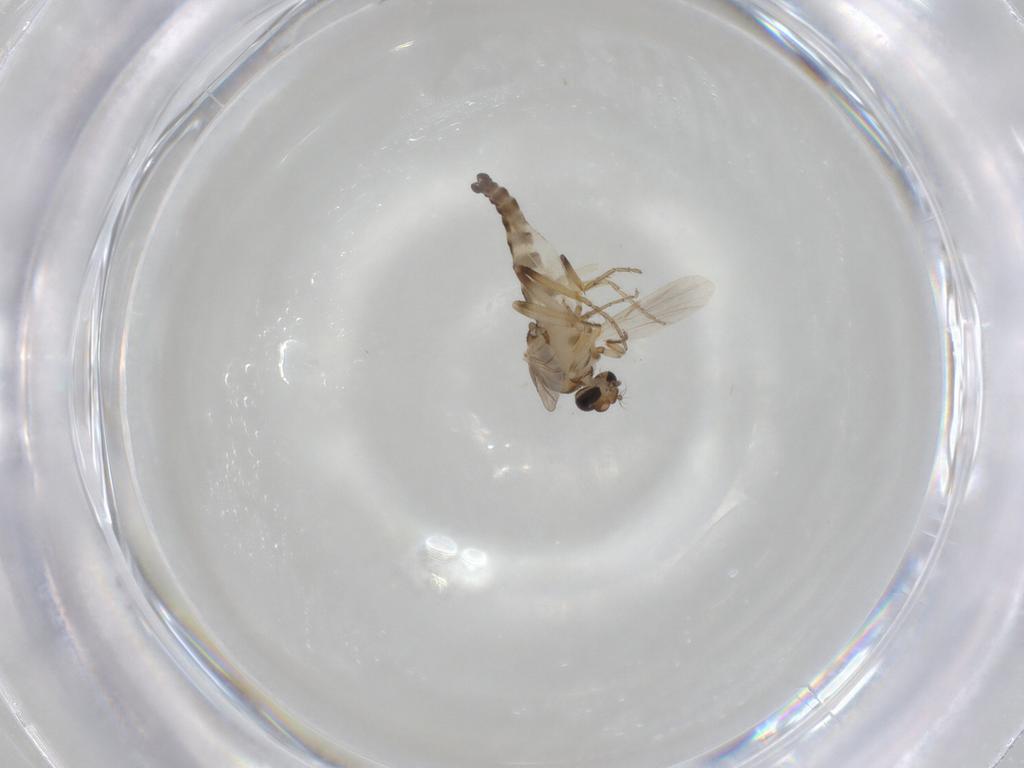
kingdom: Animalia
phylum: Arthropoda
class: Insecta
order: Diptera
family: Ceratopogonidae
